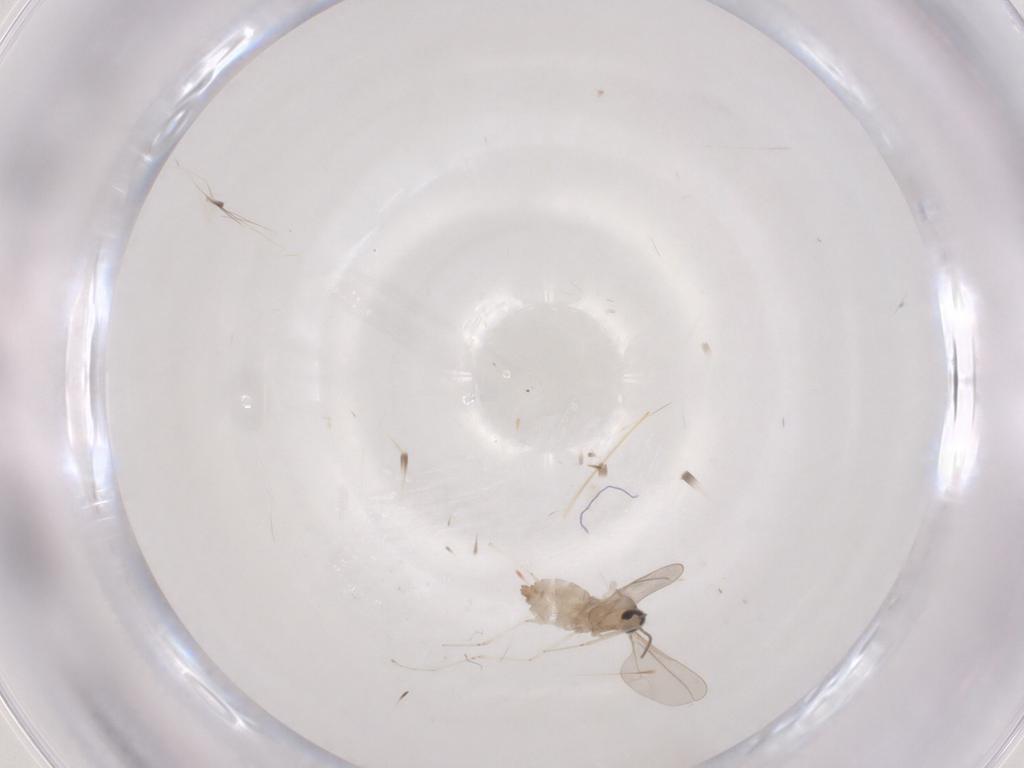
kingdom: Animalia
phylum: Arthropoda
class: Insecta
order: Diptera
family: Cecidomyiidae
